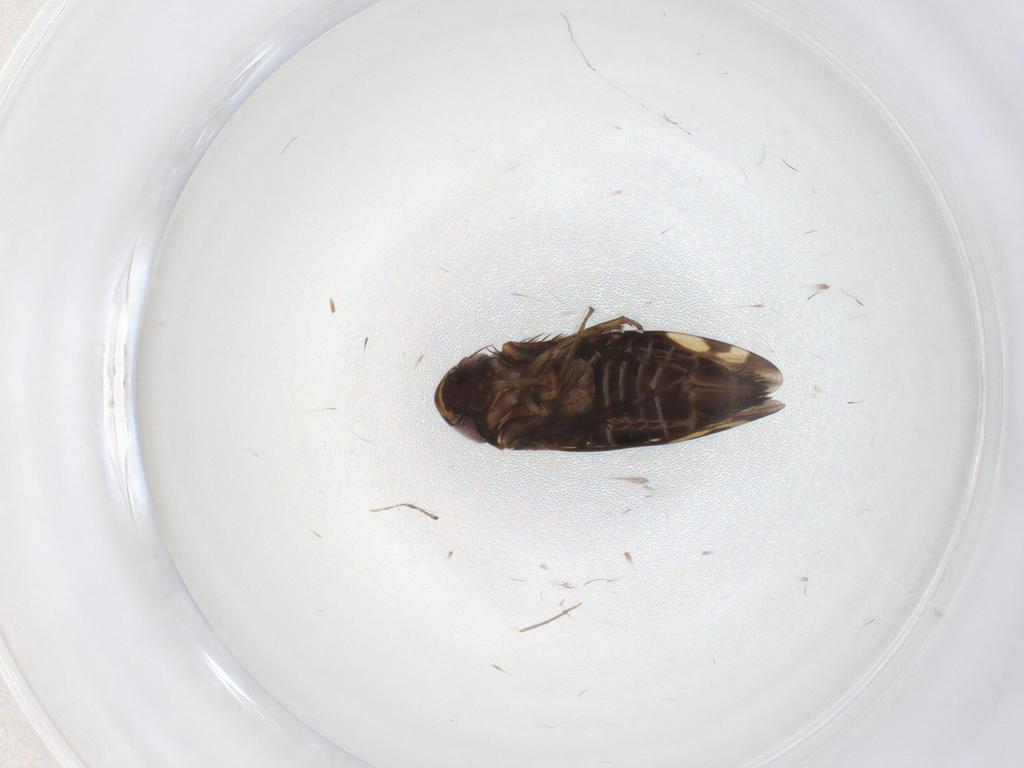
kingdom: Animalia
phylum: Arthropoda
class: Insecta
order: Hemiptera
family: Cicadellidae
